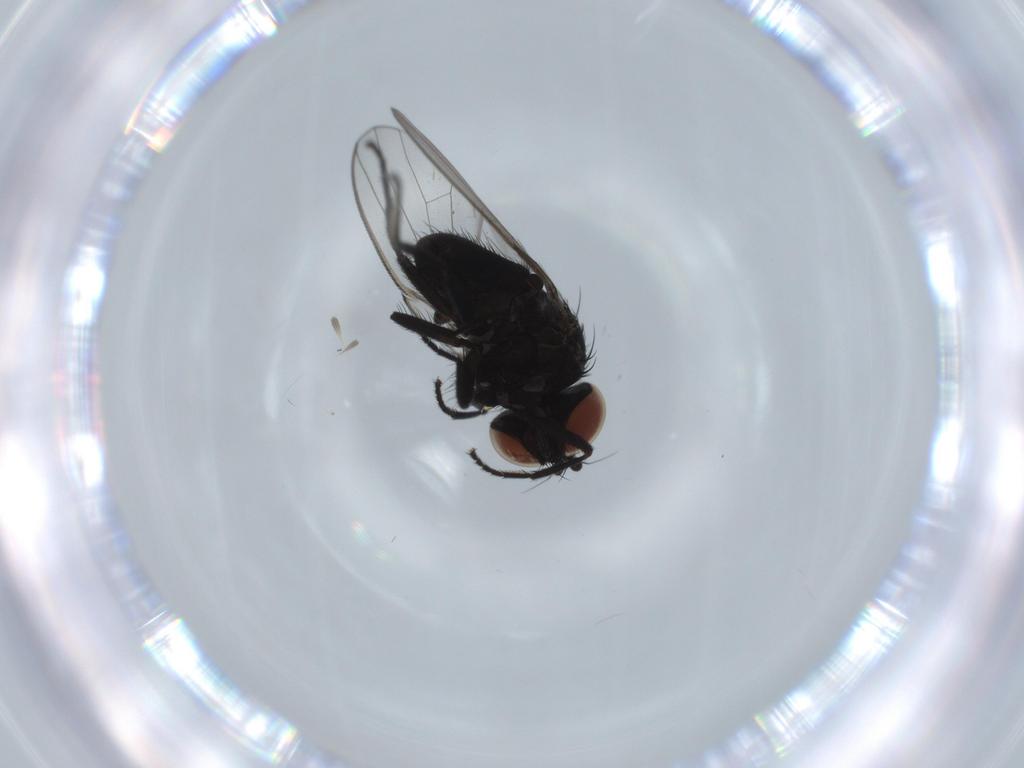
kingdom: Animalia
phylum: Arthropoda
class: Insecta
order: Diptera
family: Milichiidae
